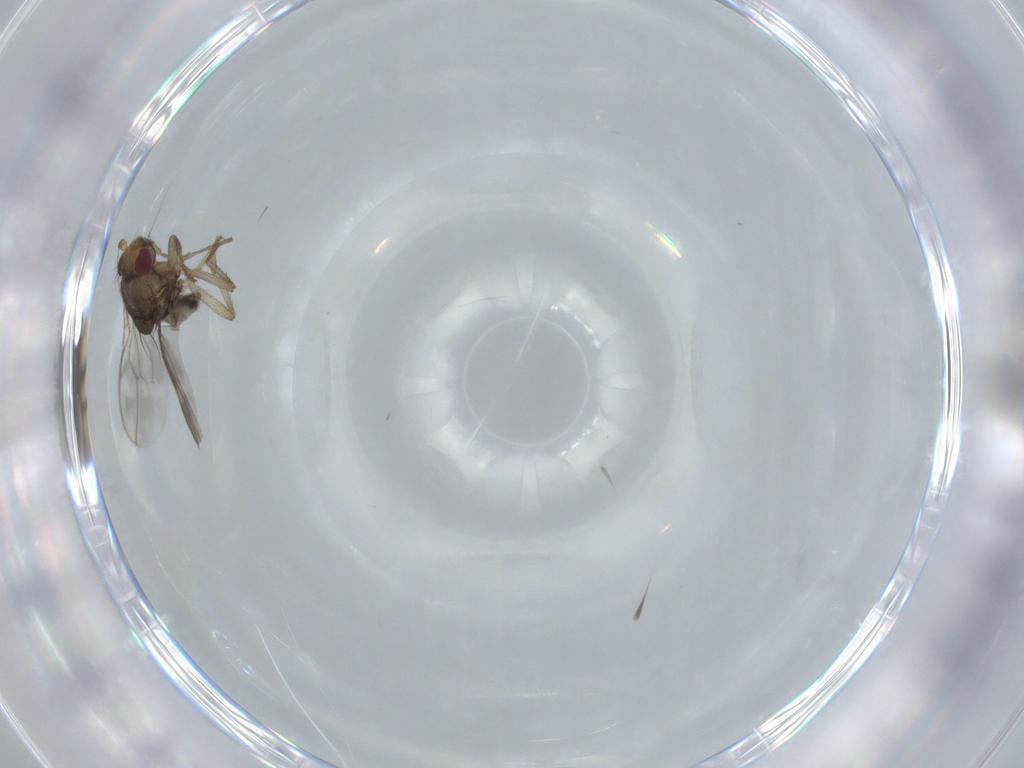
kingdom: Animalia
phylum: Arthropoda
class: Insecta
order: Diptera
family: Sphaeroceridae
